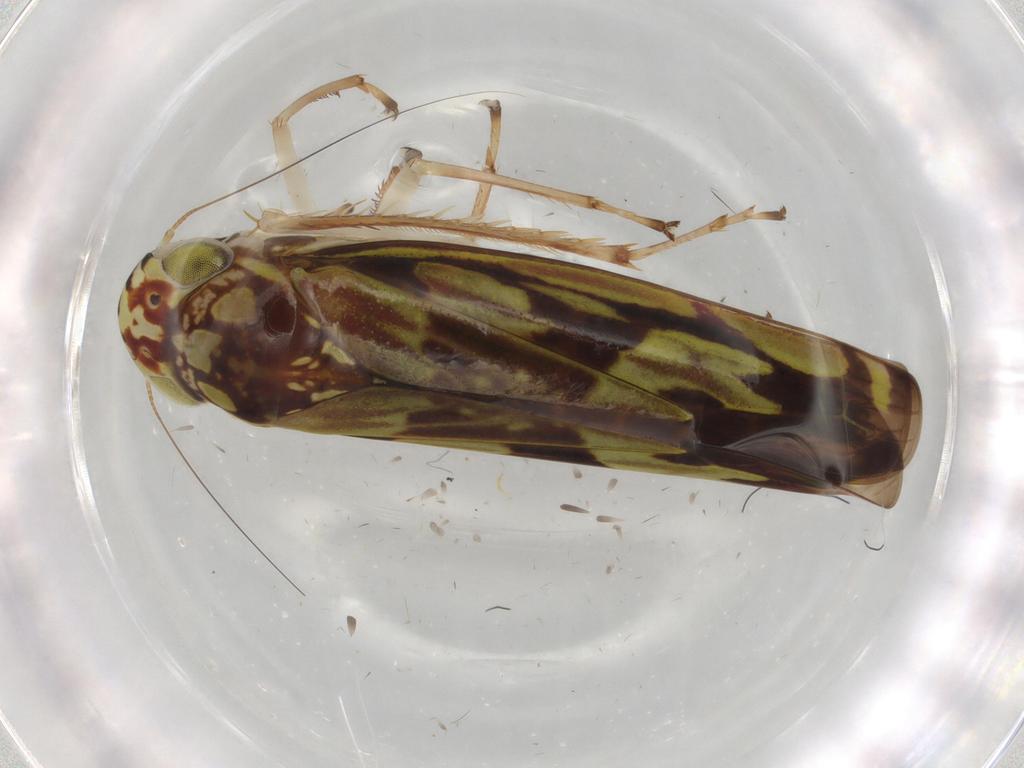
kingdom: Animalia
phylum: Arthropoda
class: Insecta
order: Hemiptera
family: Cicadellidae
